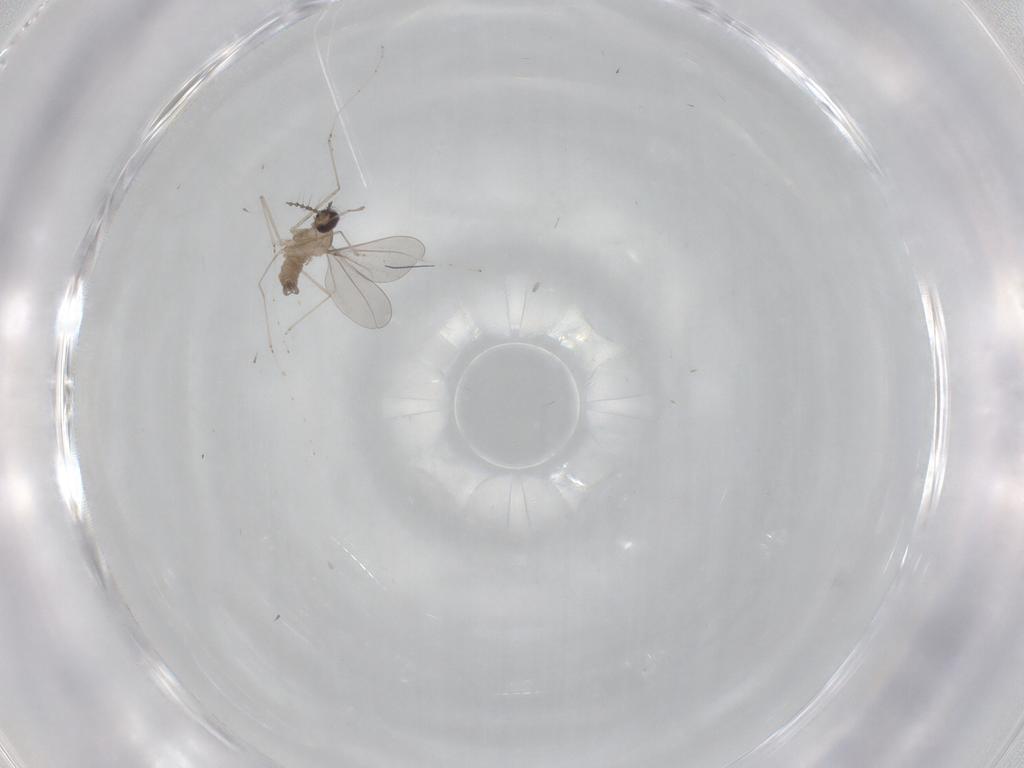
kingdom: Animalia
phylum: Arthropoda
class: Insecta
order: Diptera
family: Cecidomyiidae
